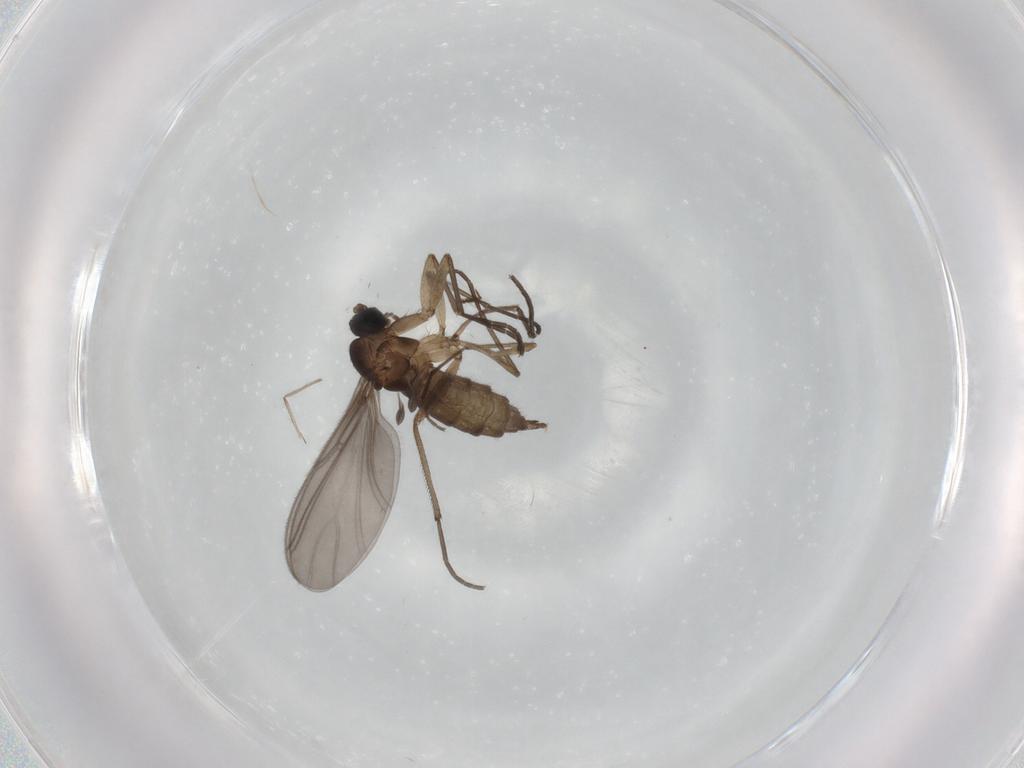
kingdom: Animalia
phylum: Arthropoda
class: Insecta
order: Diptera
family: Sciaridae
